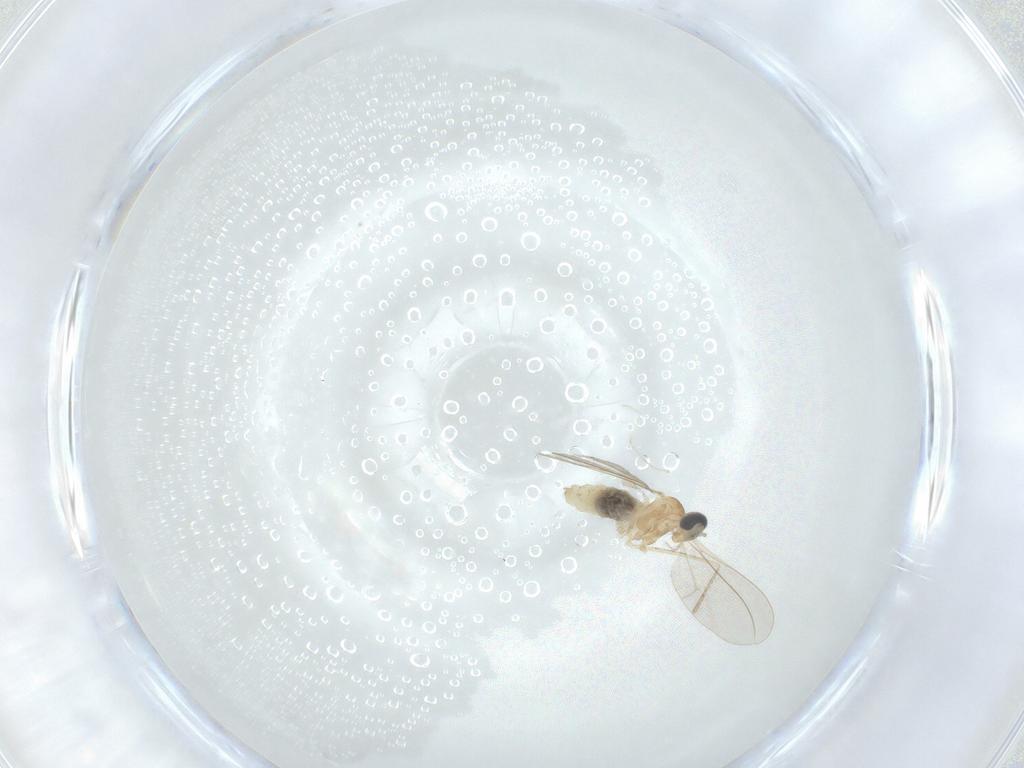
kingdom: Animalia
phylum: Arthropoda
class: Insecta
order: Diptera
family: Cecidomyiidae
